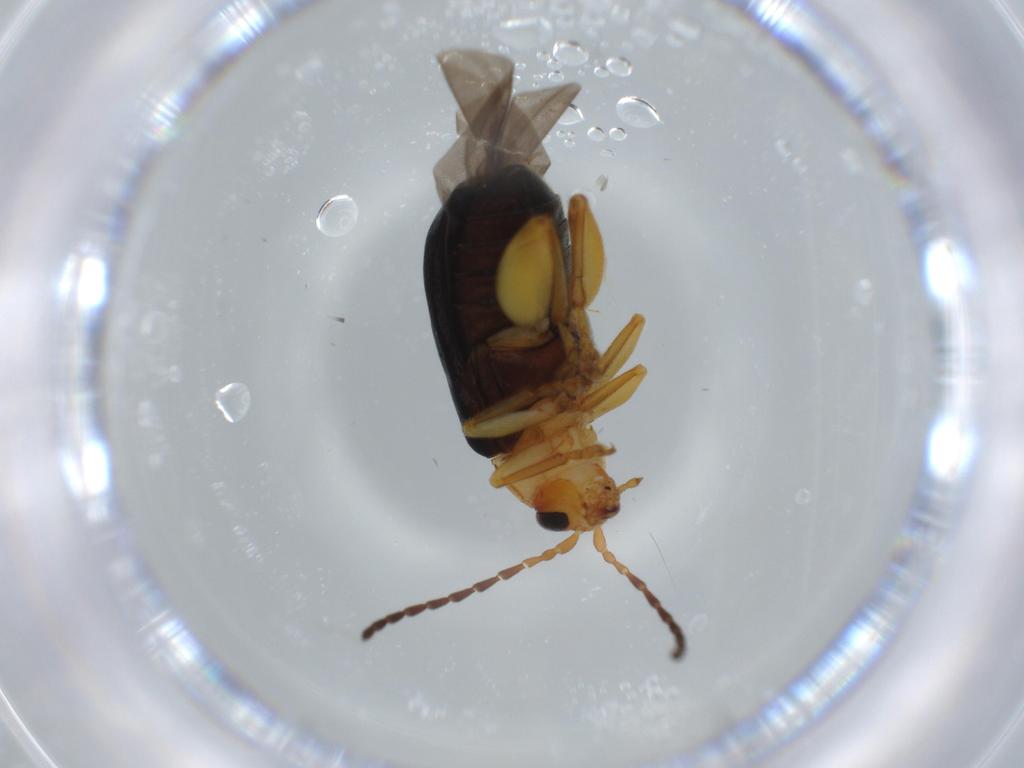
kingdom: Animalia
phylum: Arthropoda
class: Insecta
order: Coleoptera
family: Chrysomelidae
